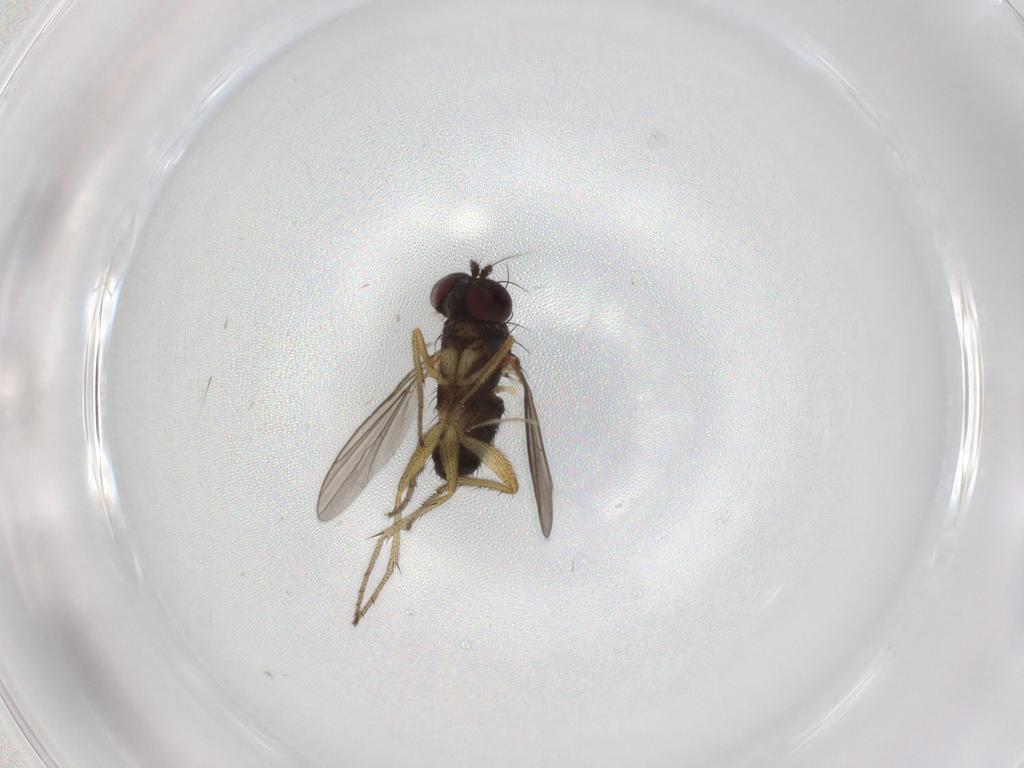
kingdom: Animalia
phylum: Arthropoda
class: Insecta
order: Diptera
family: Dolichopodidae
